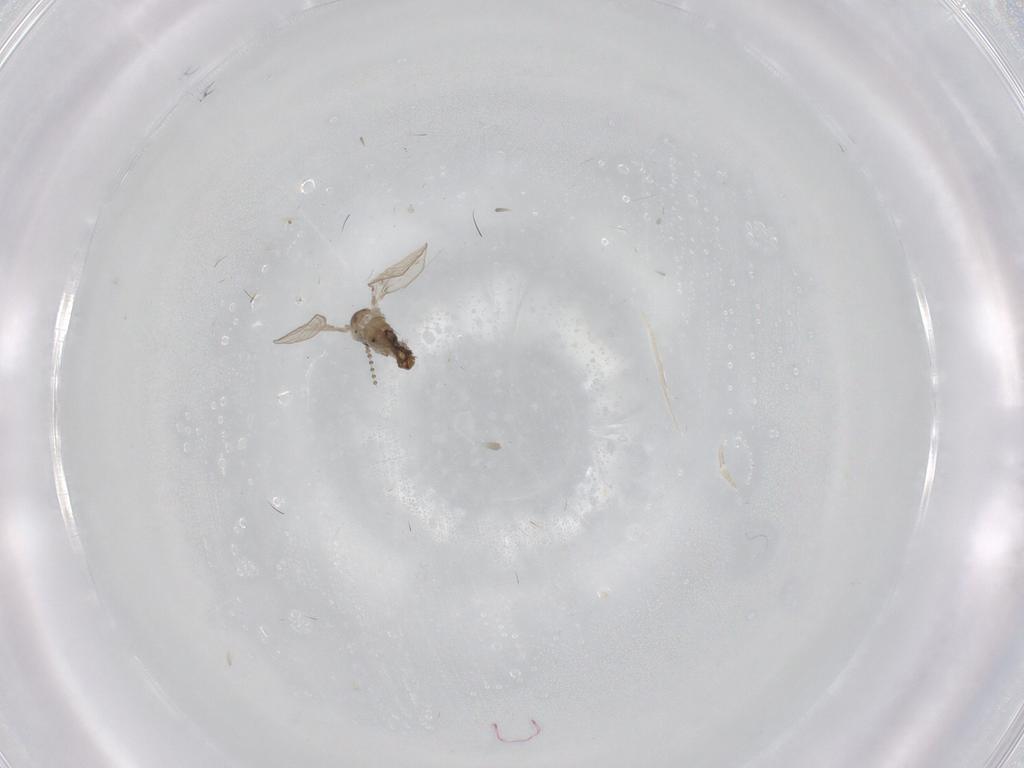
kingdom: Animalia
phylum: Arthropoda
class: Insecta
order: Diptera
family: Psychodidae
